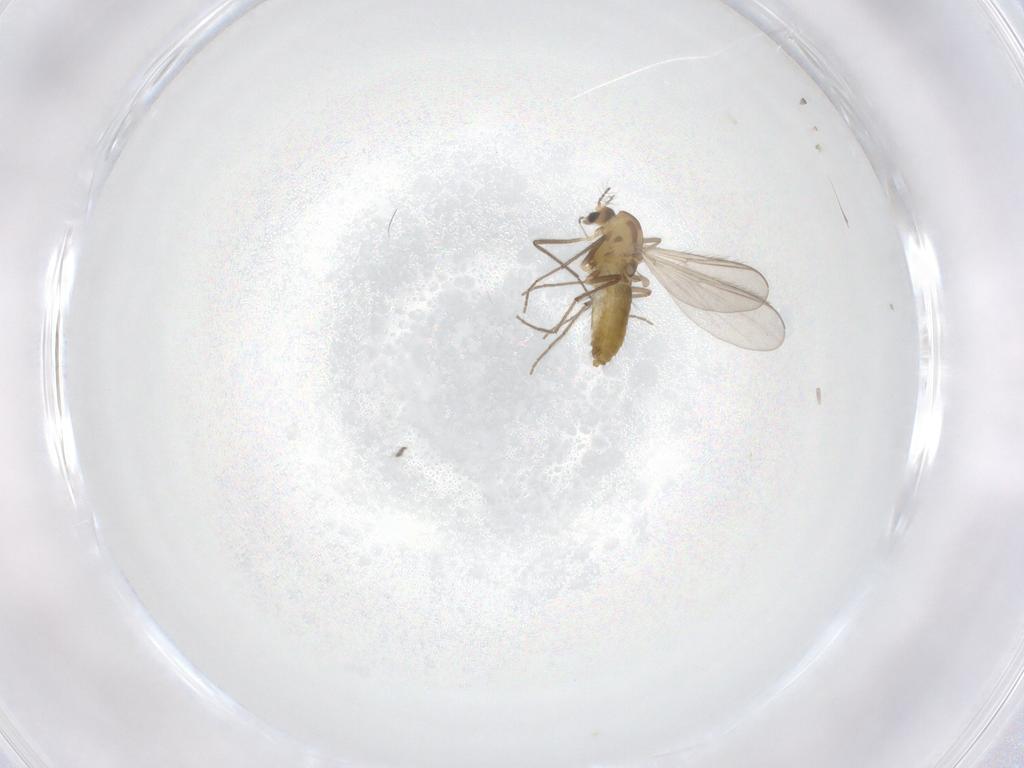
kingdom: Animalia
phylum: Arthropoda
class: Insecta
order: Diptera
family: Chironomidae
